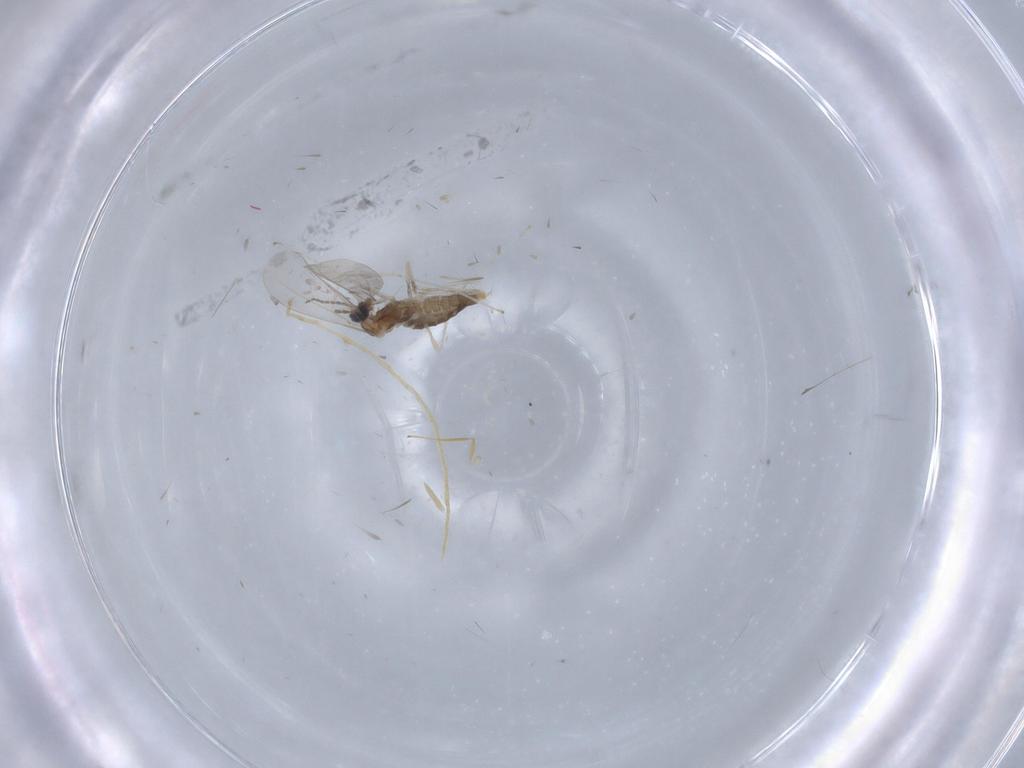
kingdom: Animalia
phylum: Arthropoda
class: Insecta
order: Diptera
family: Cecidomyiidae
